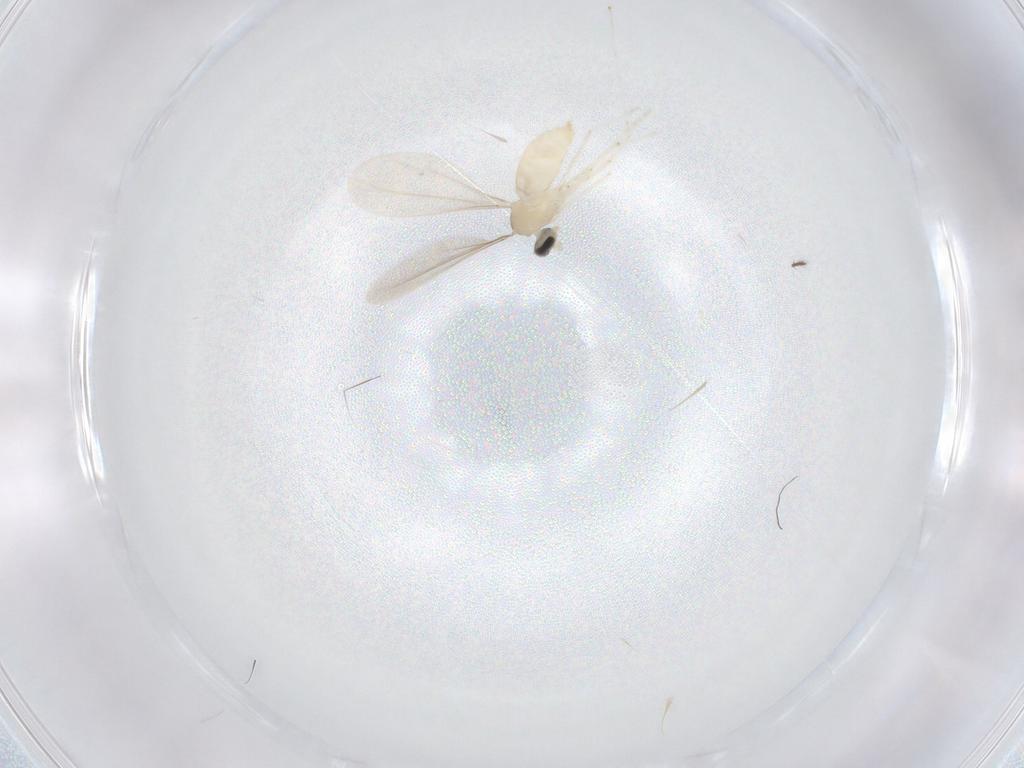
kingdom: Animalia
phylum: Arthropoda
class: Insecta
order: Diptera
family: Cecidomyiidae
